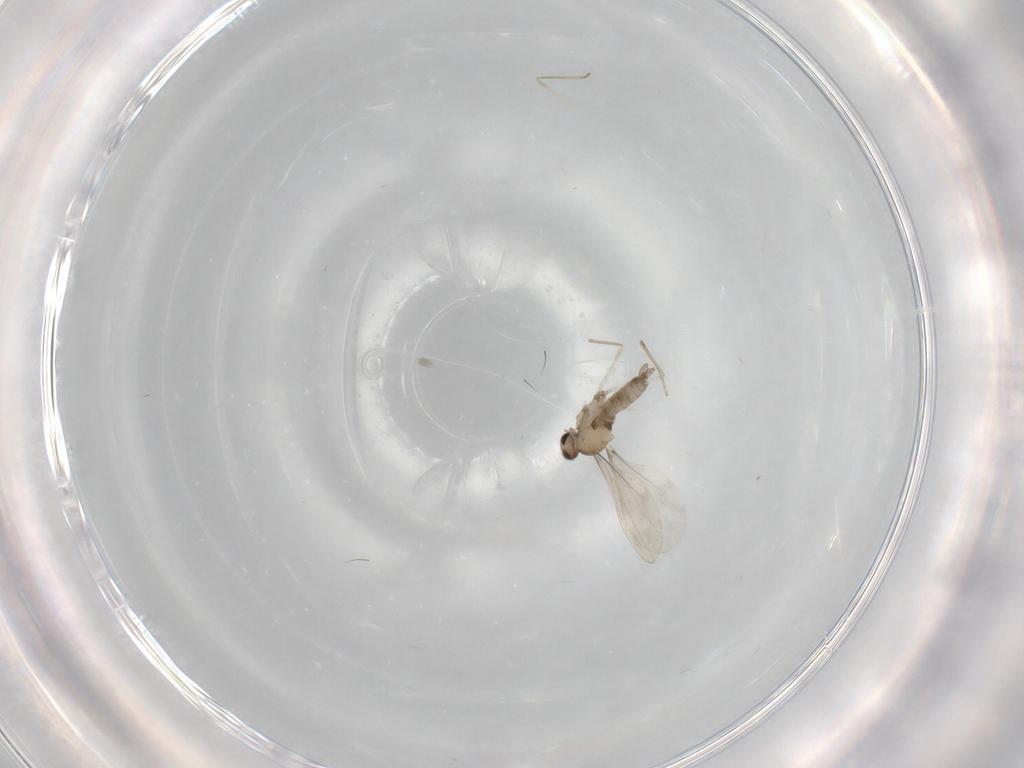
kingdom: Animalia
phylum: Arthropoda
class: Insecta
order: Diptera
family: Cecidomyiidae
